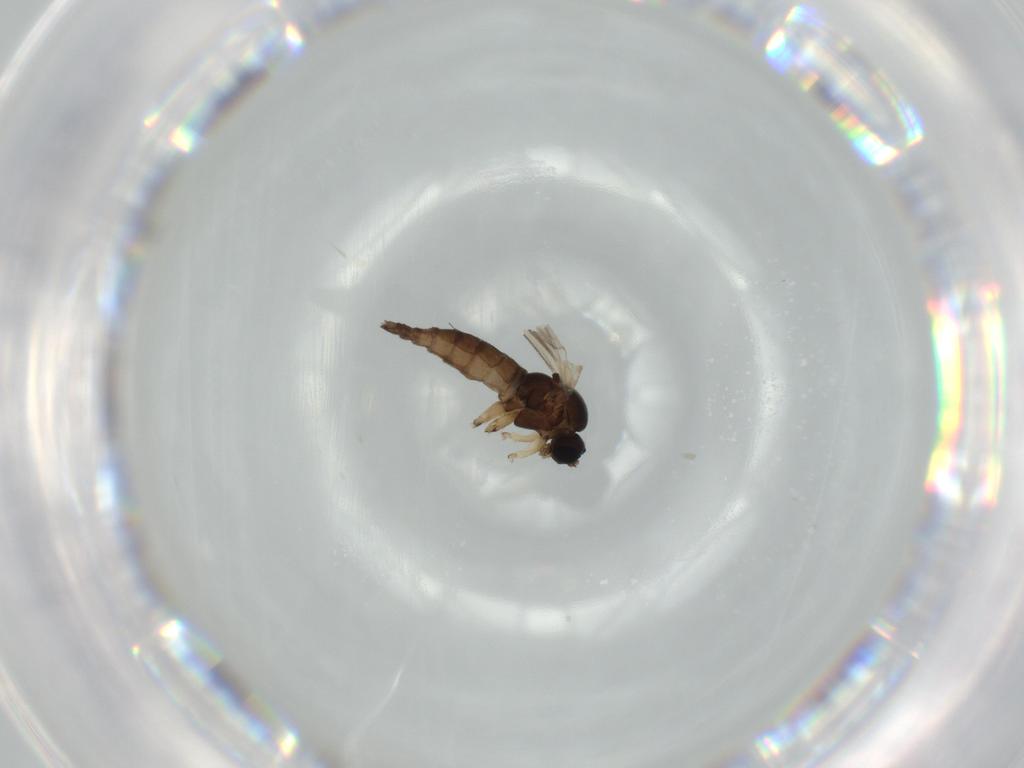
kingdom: Animalia
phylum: Arthropoda
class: Insecta
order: Diptera
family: Sciaridae
